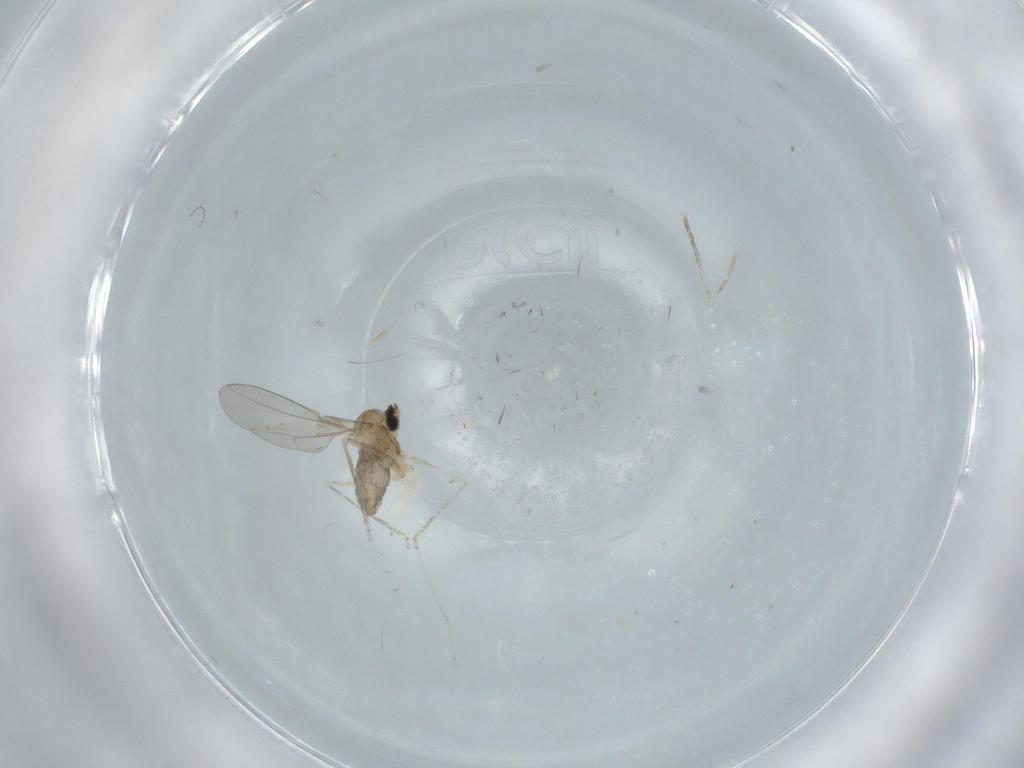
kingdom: Animalia
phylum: Arthropoda
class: Insecta
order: Diptera
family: Cecidomyiidae
